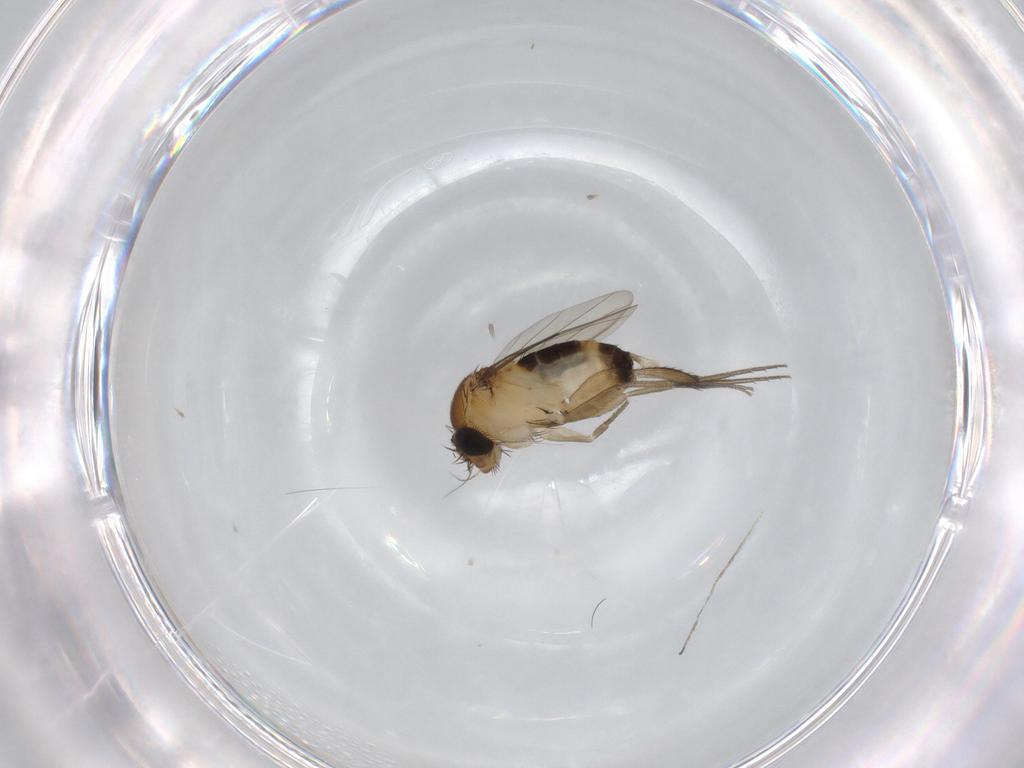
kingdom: Animalia
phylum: Arthropoda
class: Insecta
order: Diptera
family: Phoridae
